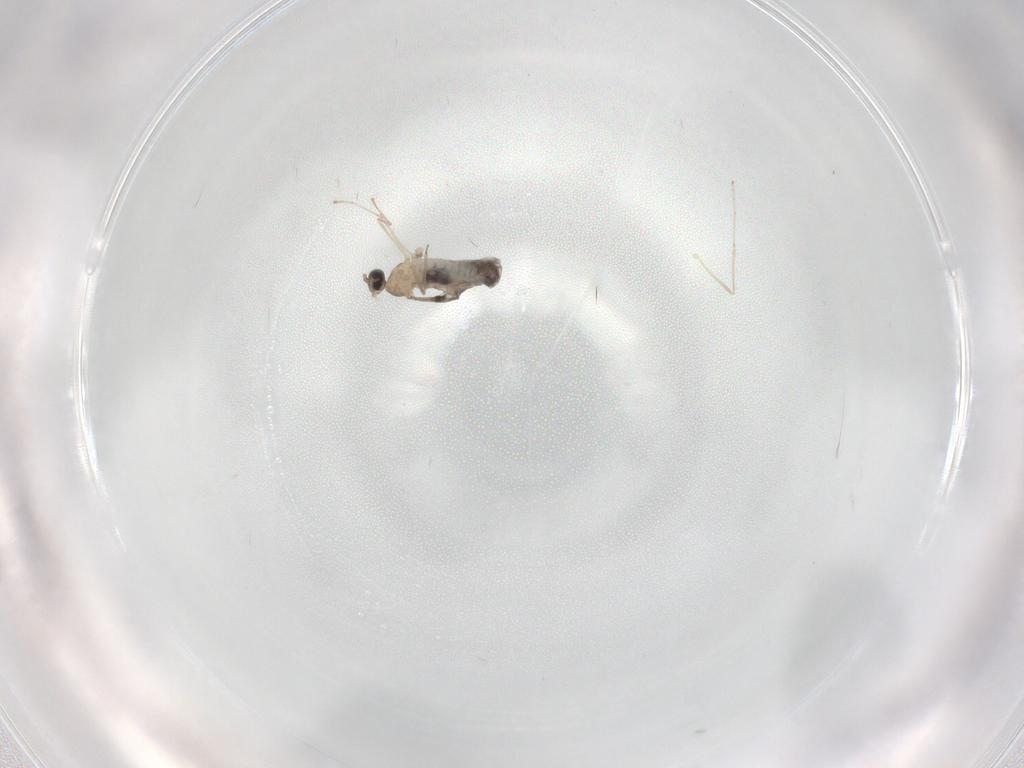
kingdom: Animalia
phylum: Arthropoda
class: Insecta
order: Diptera
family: Cecidomyiidae
